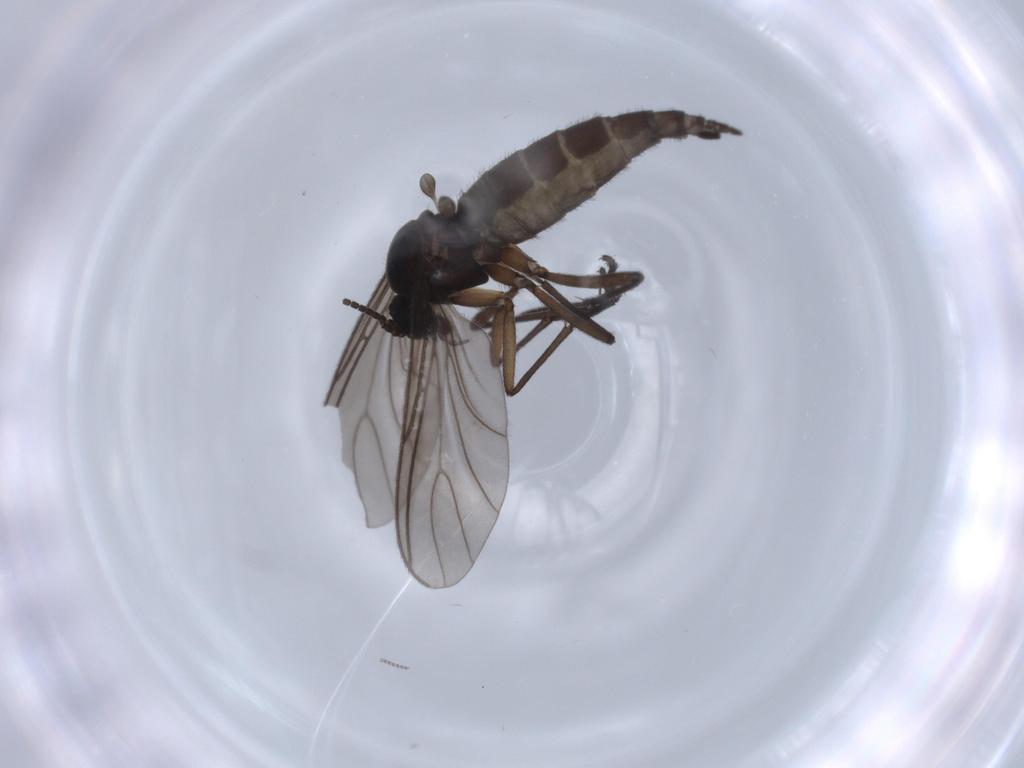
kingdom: Animalia
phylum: Arthropoda
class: Insecta
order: Diptera
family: Sciaridae
